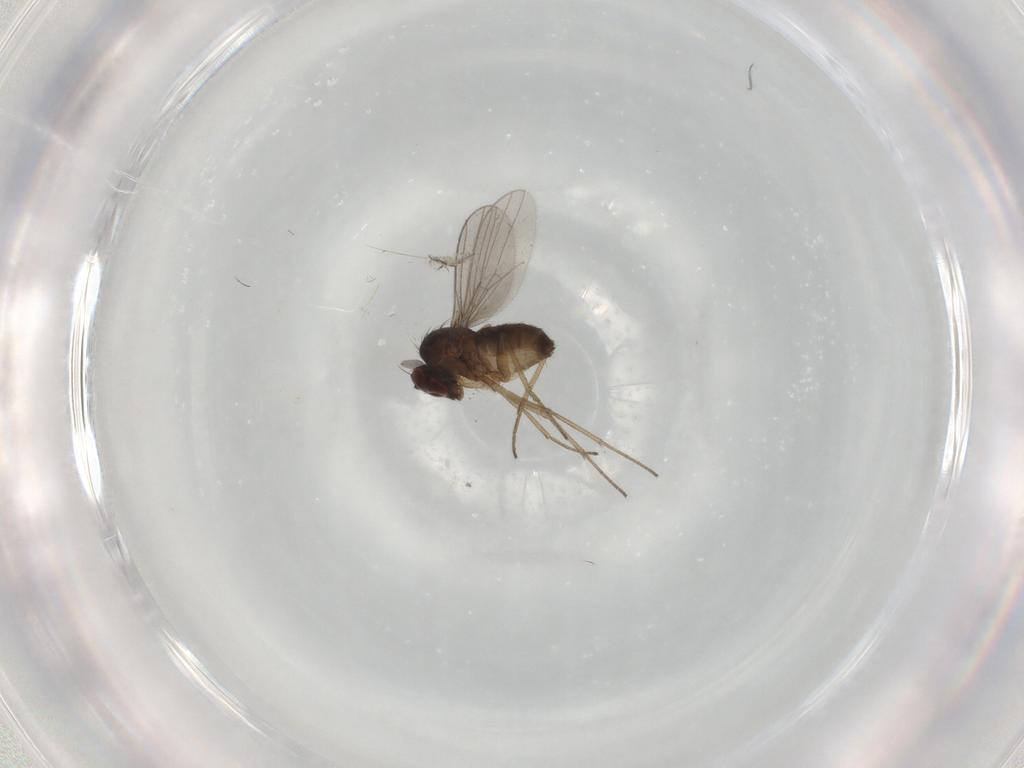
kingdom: Animalia
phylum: Arthropoda
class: Insecta
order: Diptera
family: Dolichopodidae
